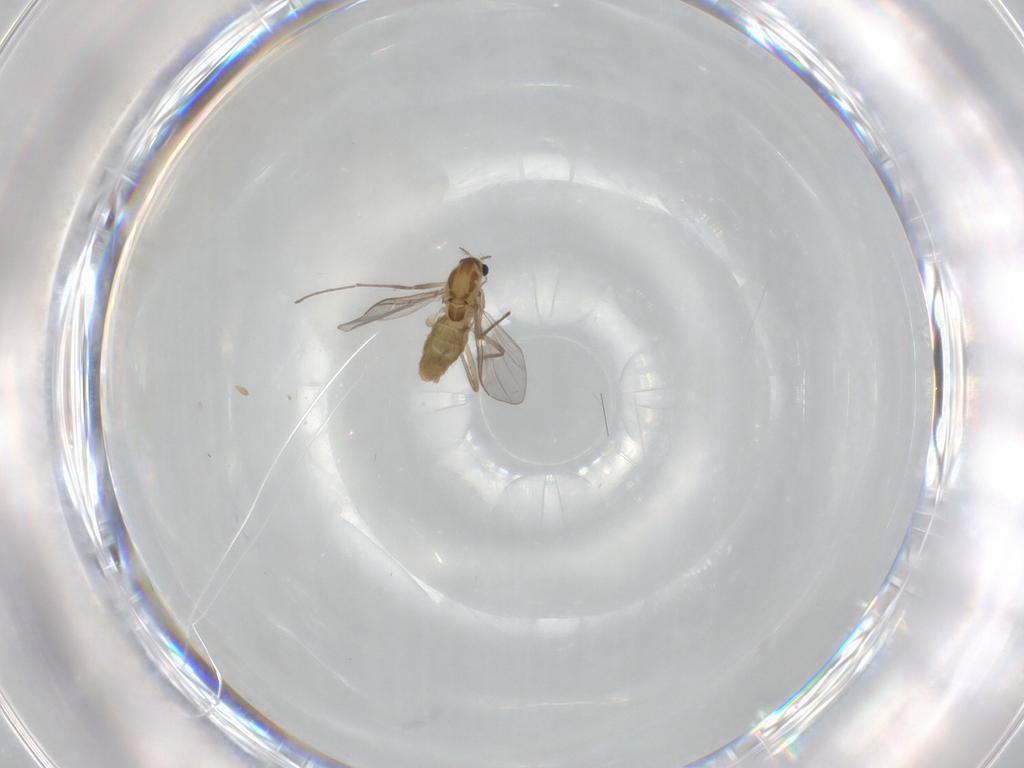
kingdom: Animalia
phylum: Arthropoda
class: Insecta
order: Diptera
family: Chironomidae
